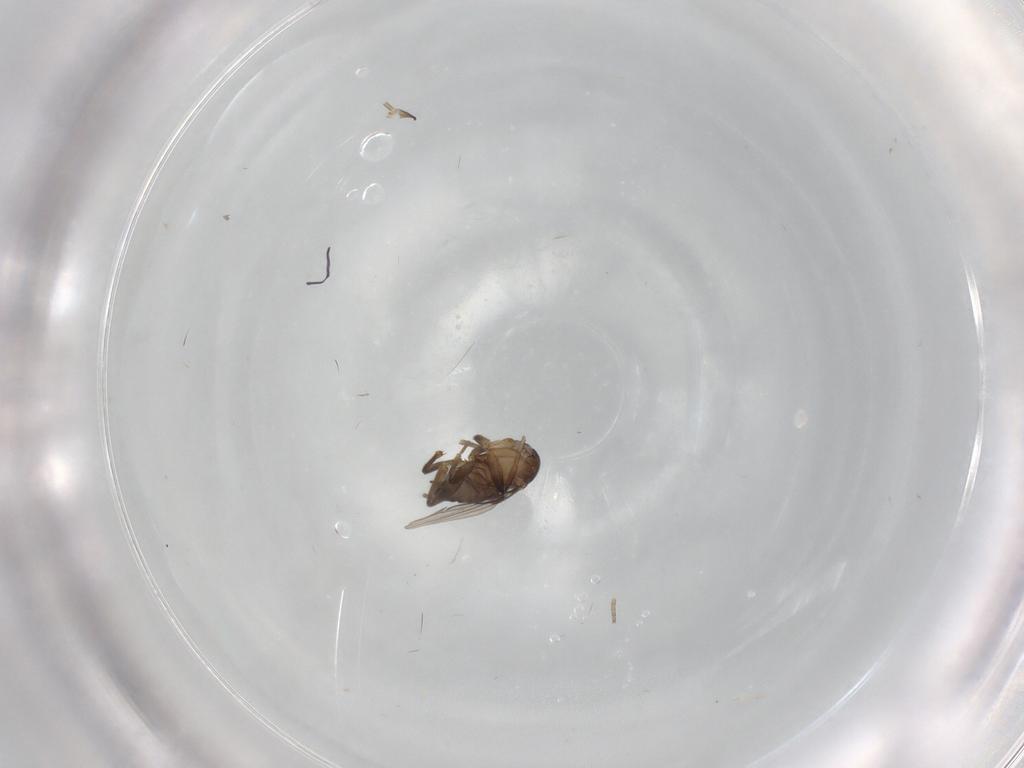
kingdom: Animalia
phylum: Arthropoda
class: Insecta
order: Diptera
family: Phoridae
